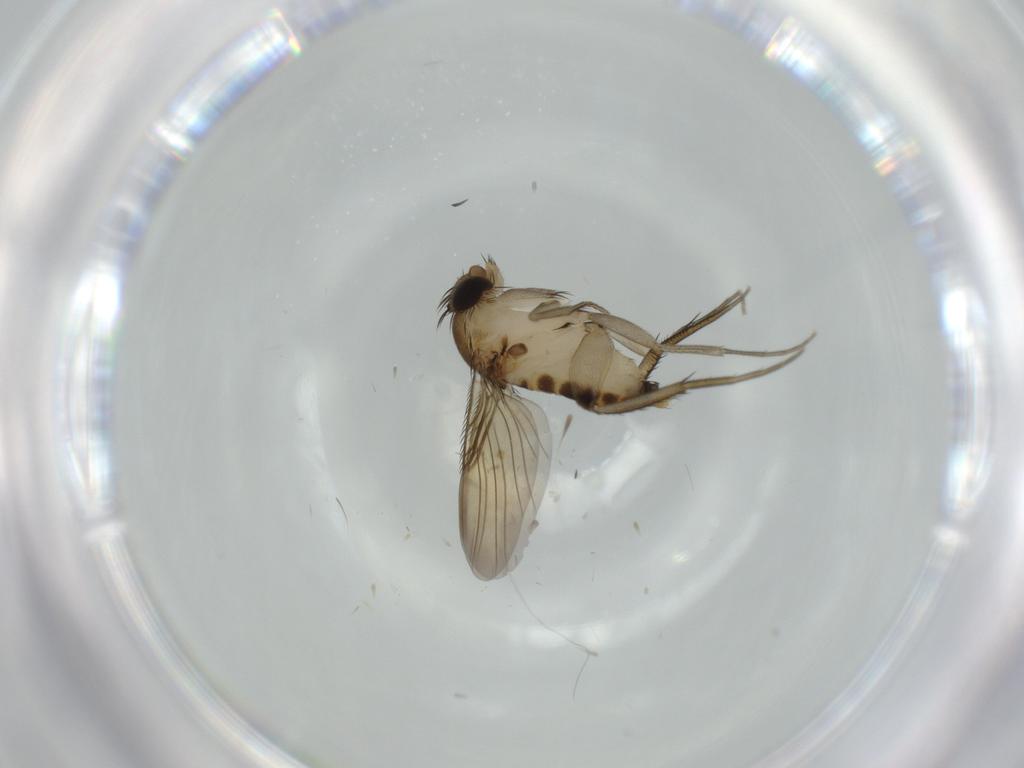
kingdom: Animalia
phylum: Arthropoda
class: Insecta
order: Diptera
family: Phoridae
